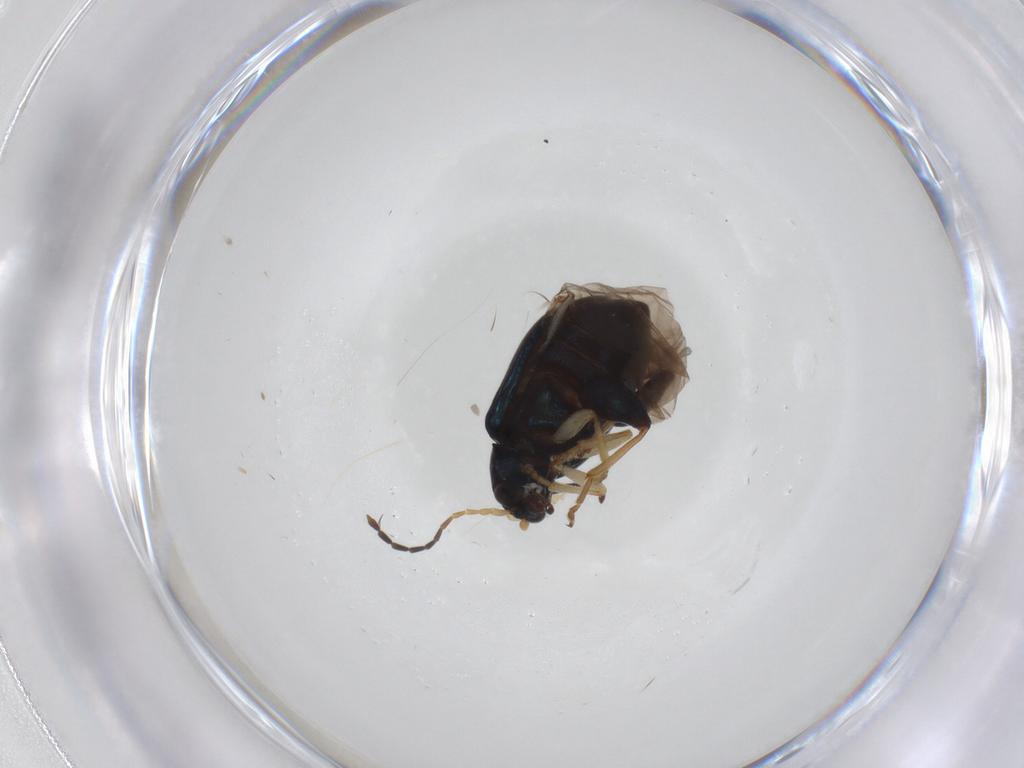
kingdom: Animalia
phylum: Arthropoda
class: Insecta
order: Coleoptera
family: Chrysomelidae
